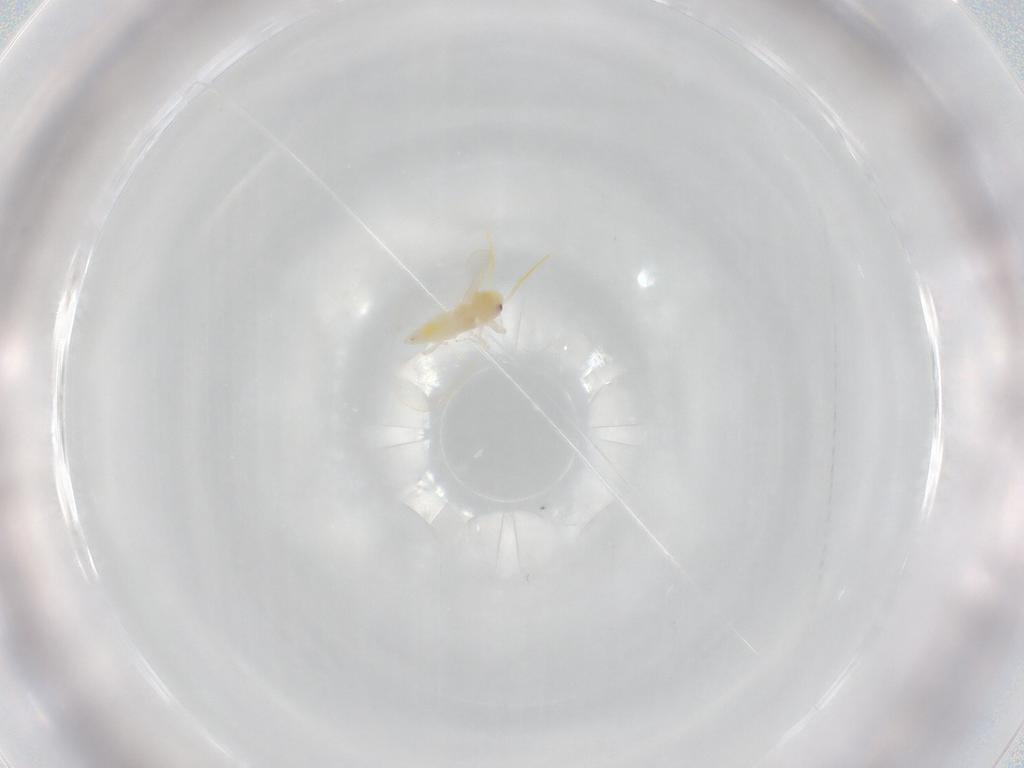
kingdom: Animalia
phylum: Arthropoda
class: Insecta
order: Hemiptera
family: Aleyrodidae
